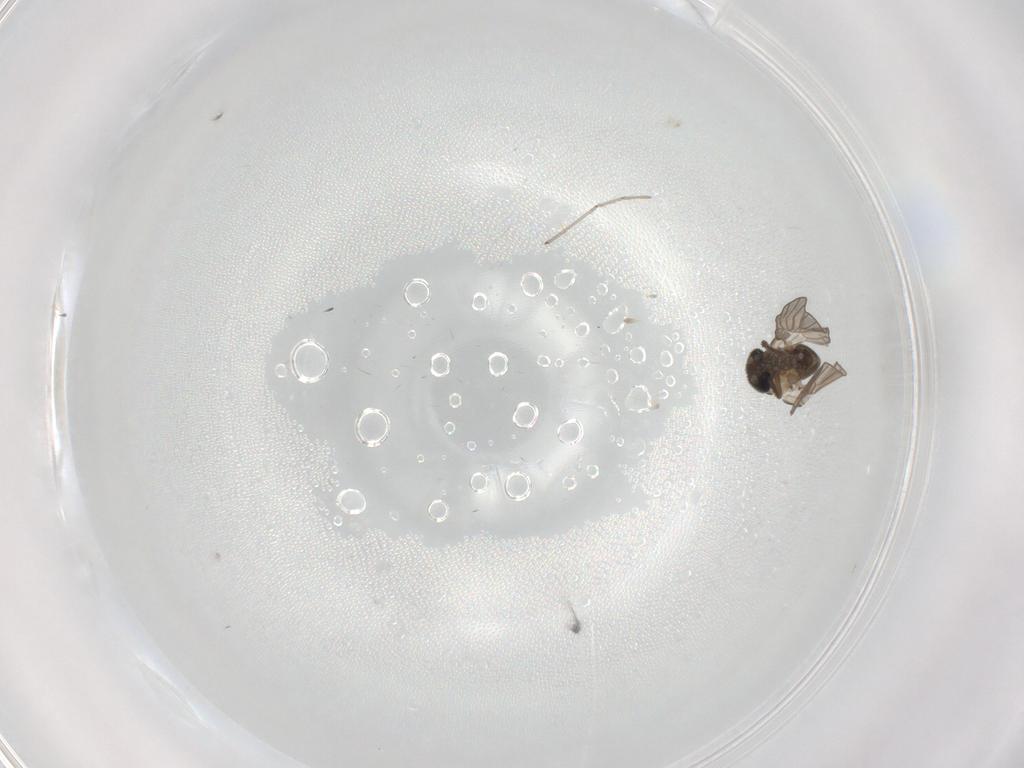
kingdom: Animalia
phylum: Arthropoda
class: Insecta
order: Diptera
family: Psychodidae
